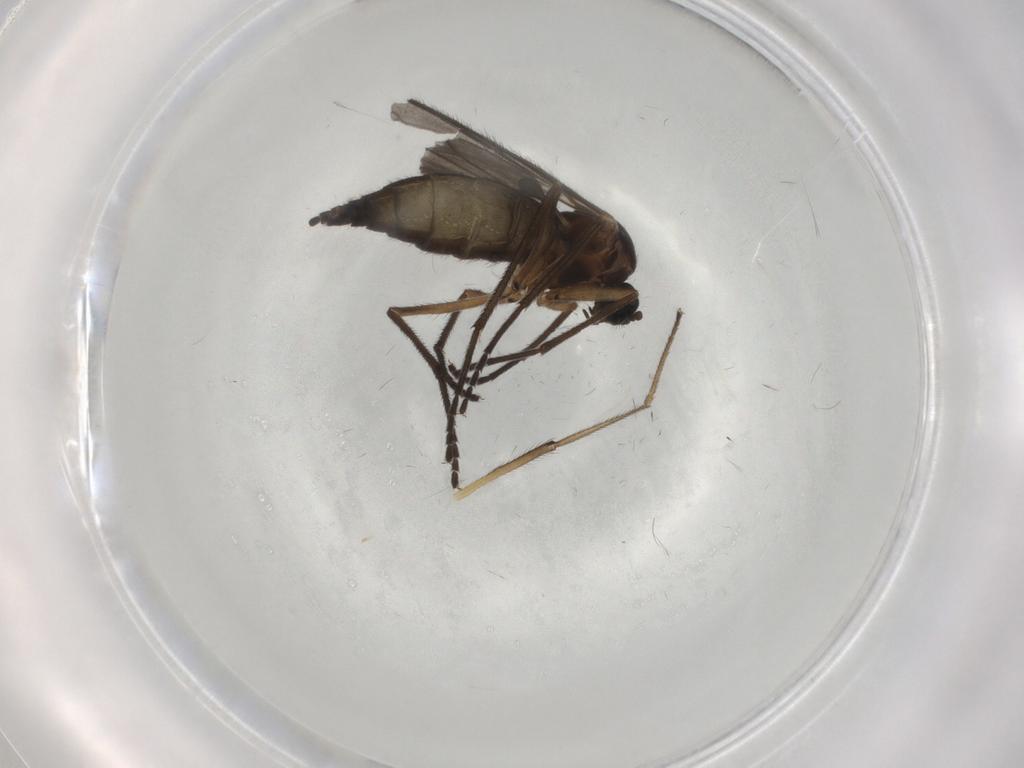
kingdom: Animalia
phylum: Arthropoda
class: Insecta
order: Diptera
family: Sciaridae
